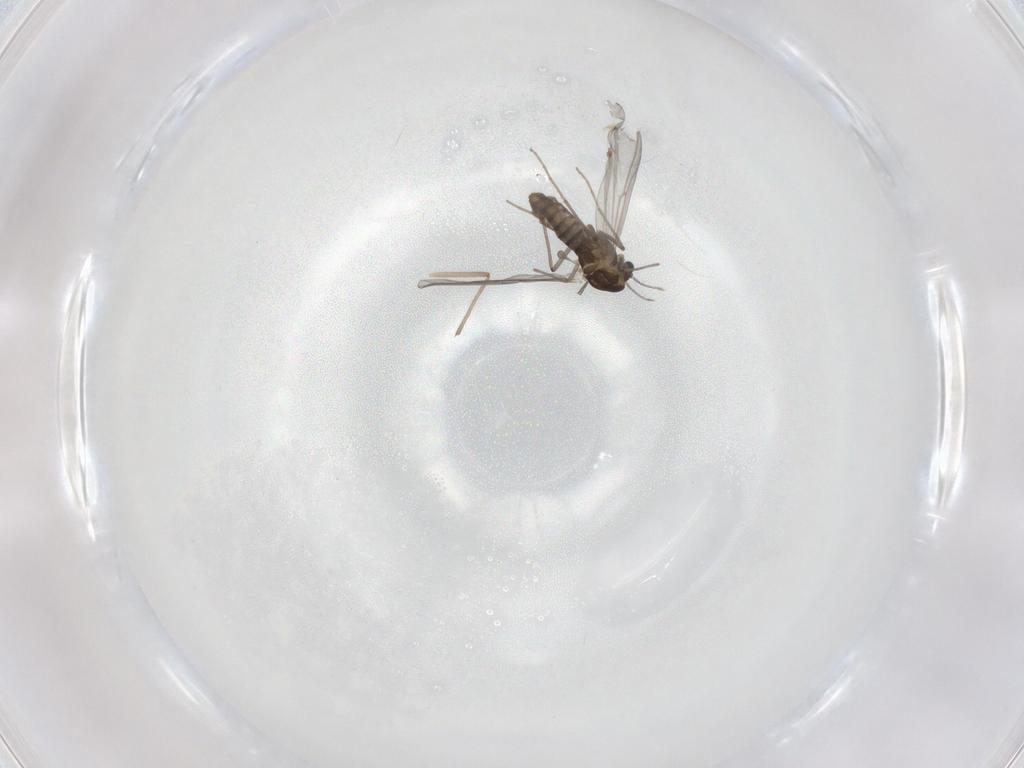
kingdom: Animalia
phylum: Arthropoda
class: Insecta
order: Diptera
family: Chironomidae
